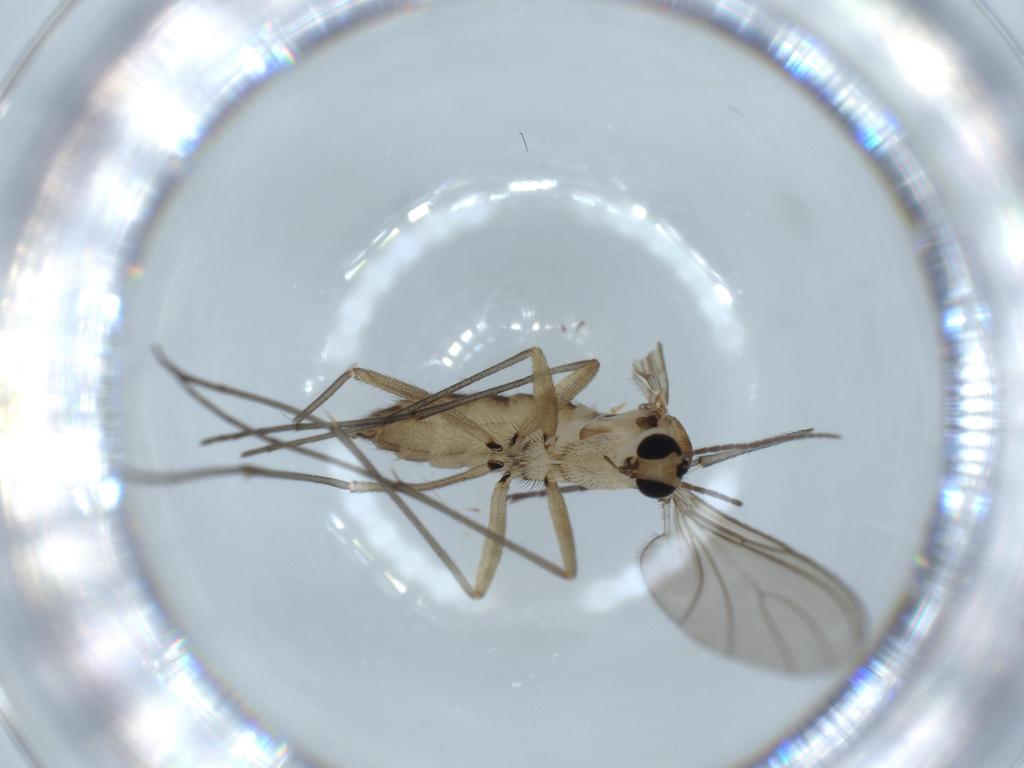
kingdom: Animalia
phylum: Arthropoda
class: Insecta
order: Diptera
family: Sciaridae
